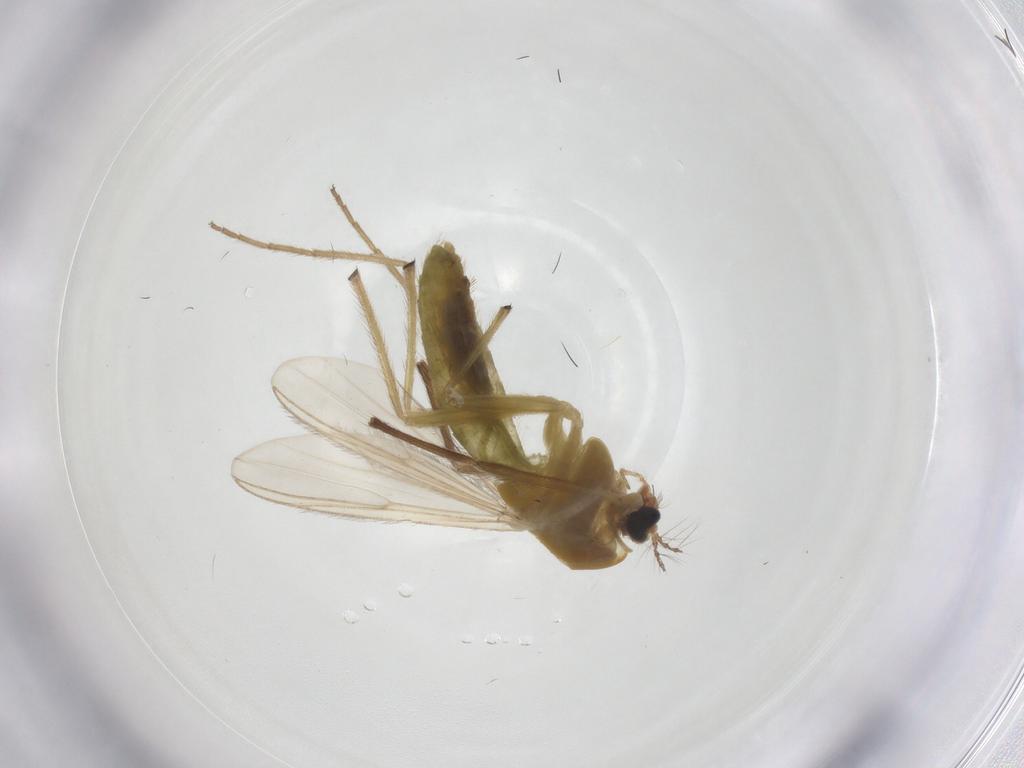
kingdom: Animalia
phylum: Arthropoda
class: Insecta
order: Diptera
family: Chironomidae
